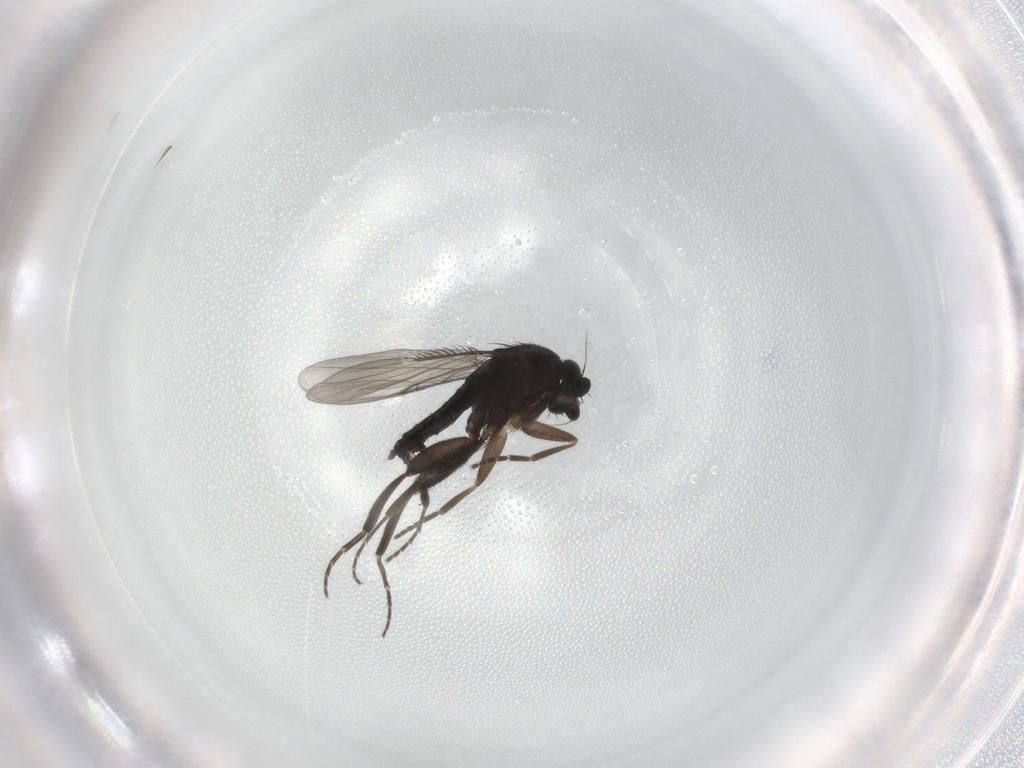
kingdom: Animalia
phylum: Arthropoda
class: Insecta
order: Diptera
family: Phoridae
